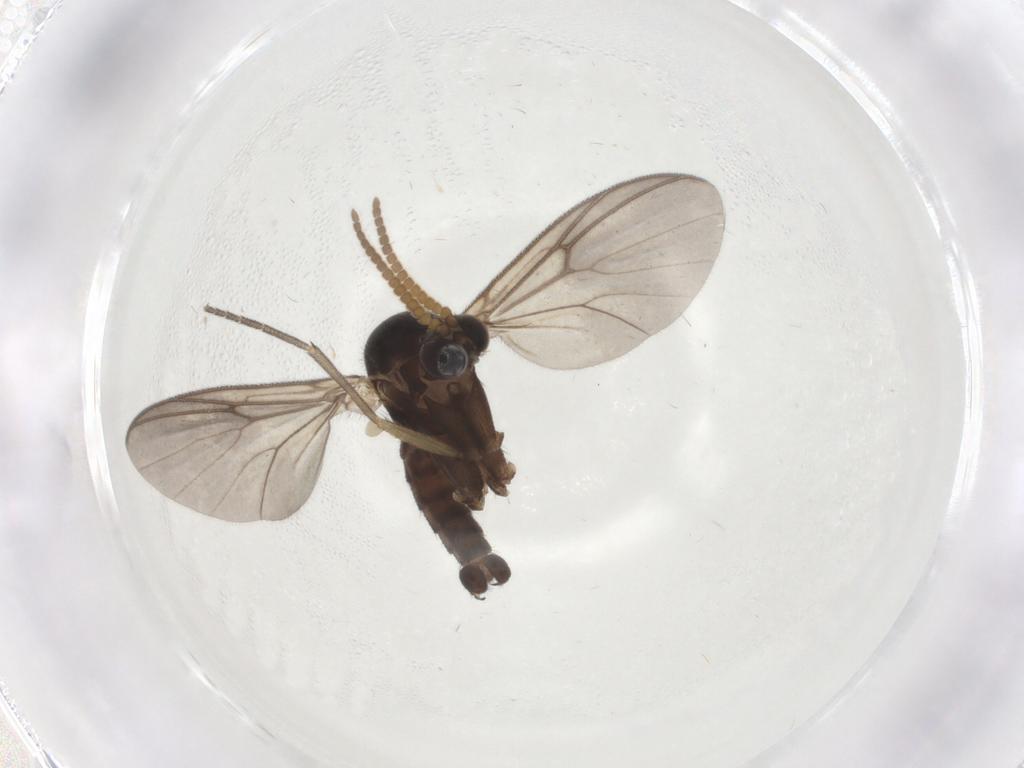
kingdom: Animalia
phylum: Arthropoda
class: Insecta
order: Diptera
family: Mycetophilidae
